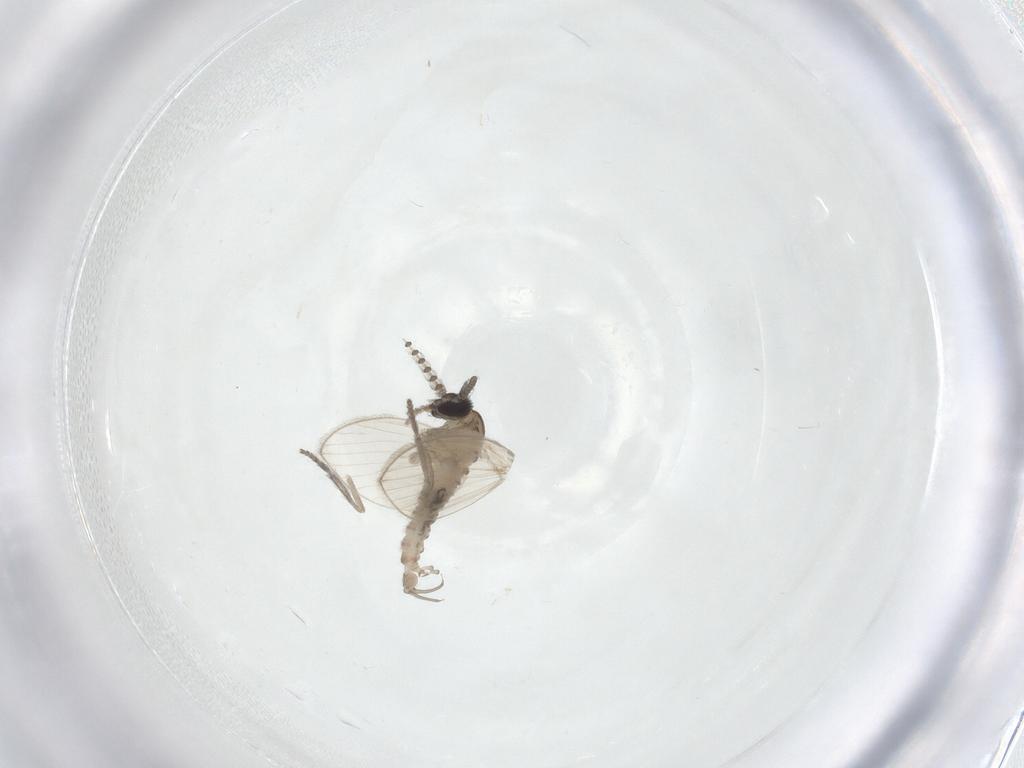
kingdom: Animalia
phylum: Arthropoda
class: Insecta
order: Diptera
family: Psychodidae
